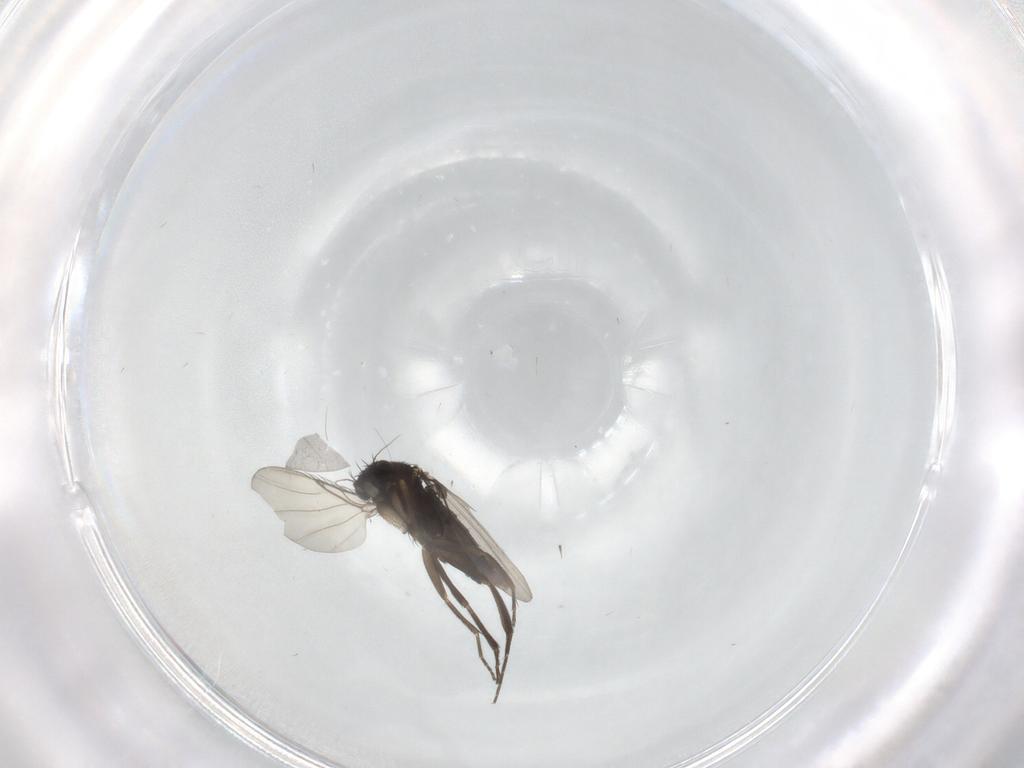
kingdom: Animalia
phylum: Arthropoda
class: Insecta
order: Diptera
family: Phoridae
